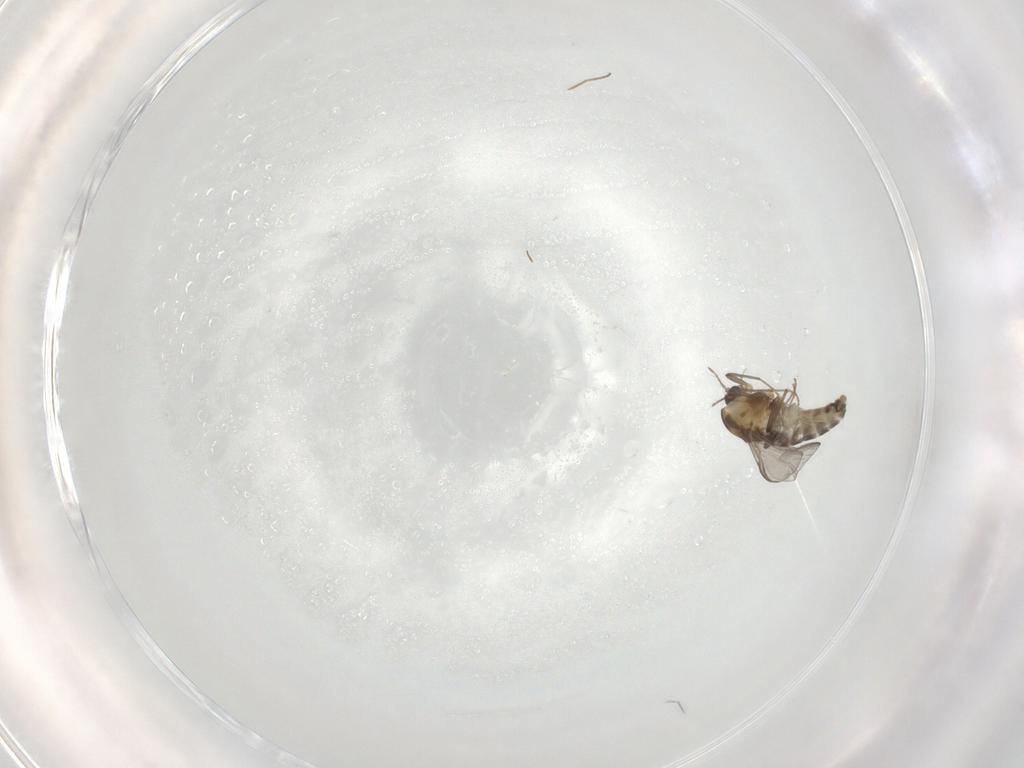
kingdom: Animalia
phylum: Arthropoda
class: Insecta
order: Diptera
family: Chironomidae
